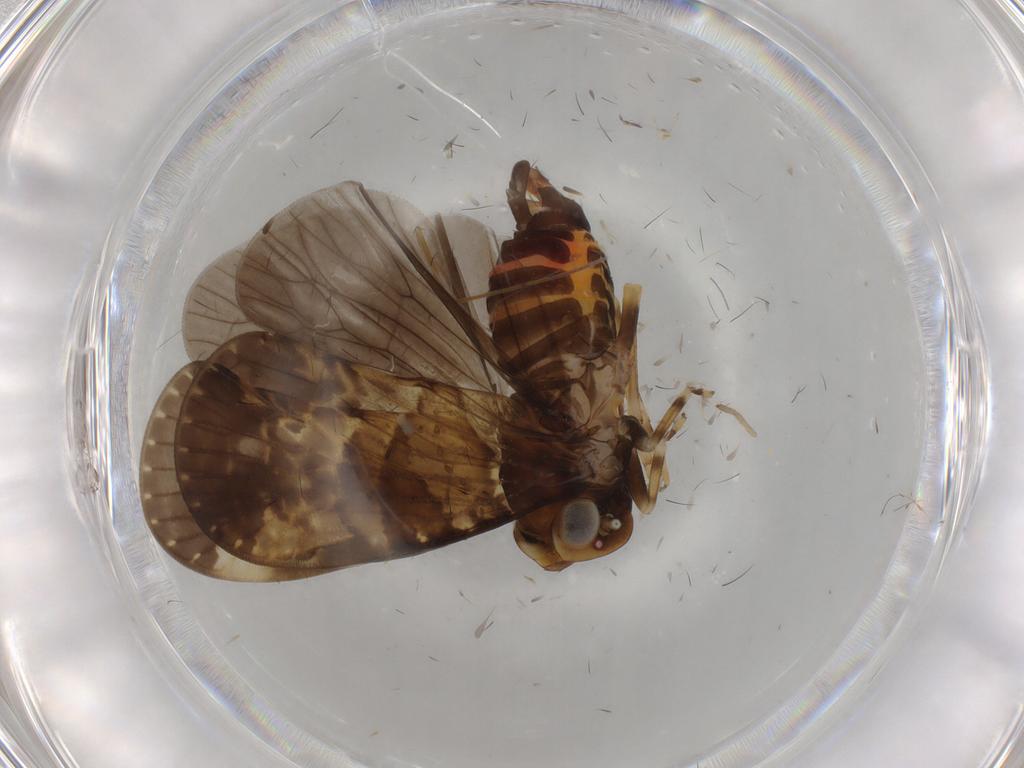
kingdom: Animalia
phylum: Arthropoda
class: Insecta
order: Hemiptera
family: Cixiidae
